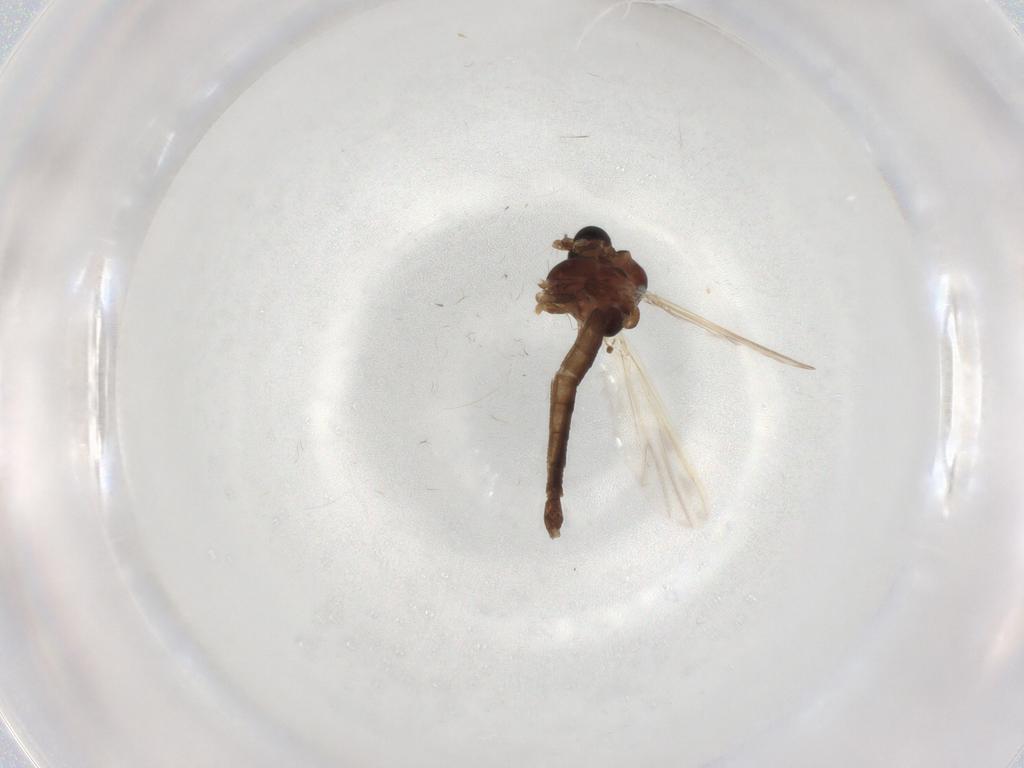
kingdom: Animalia
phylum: Arthropoda
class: Insecta
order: Diptera
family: Chironomidae
